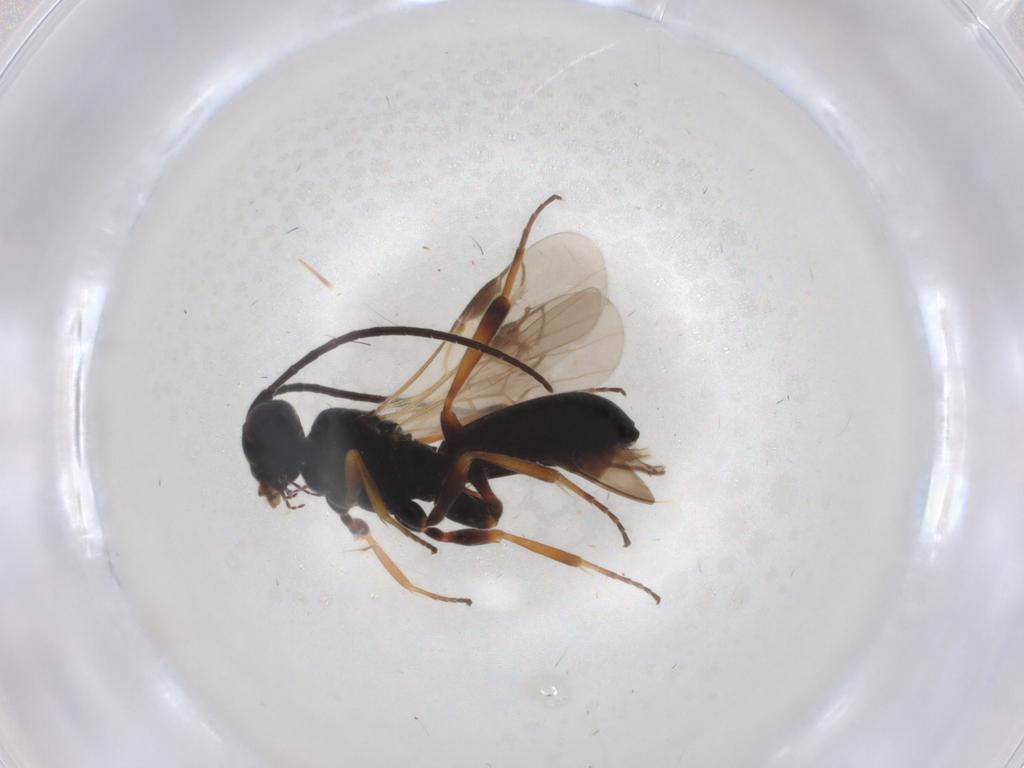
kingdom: Animalia
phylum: Arthropoda
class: Insecta
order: Hymenoptera
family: Braconidae
